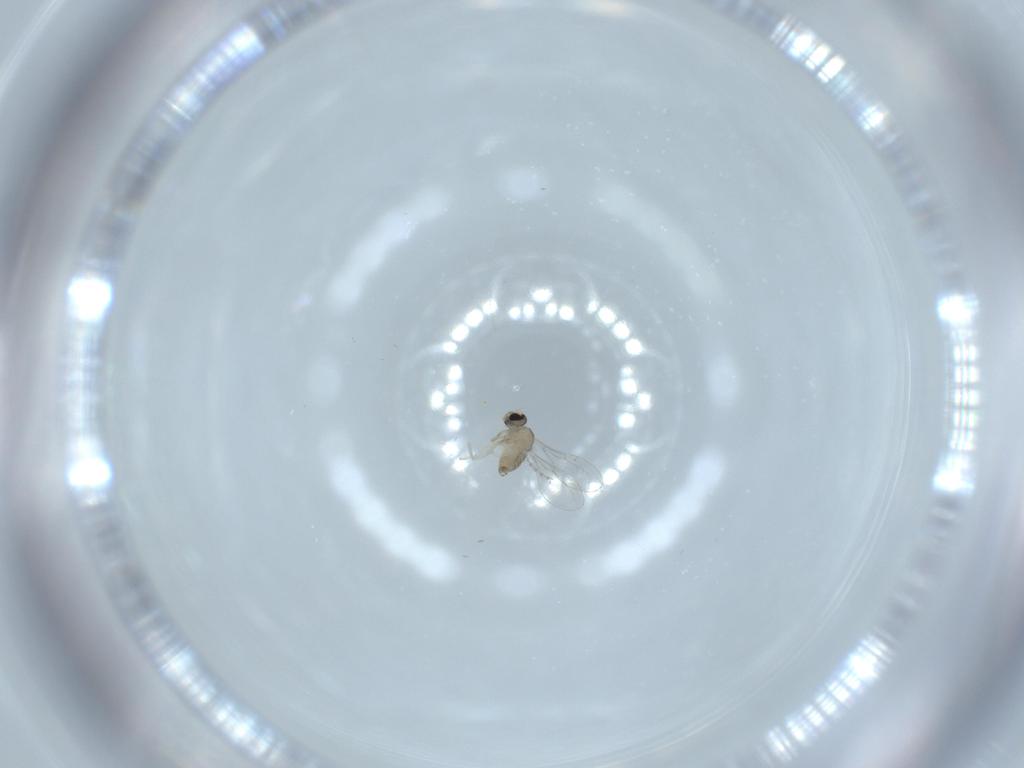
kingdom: Animalia
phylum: Arthropoda
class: Insecta
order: Diptera
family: Cecidomyiidae
